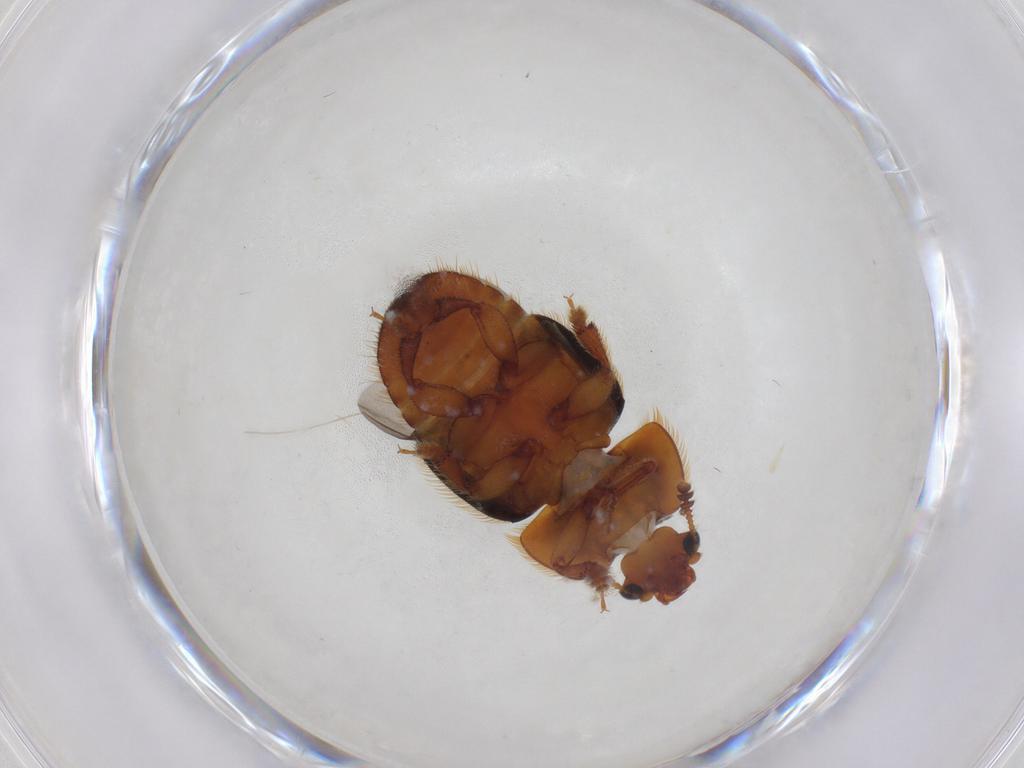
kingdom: Animalia
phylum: Arthropoda
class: Insecta
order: Coleoptera
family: Nitidulidae
